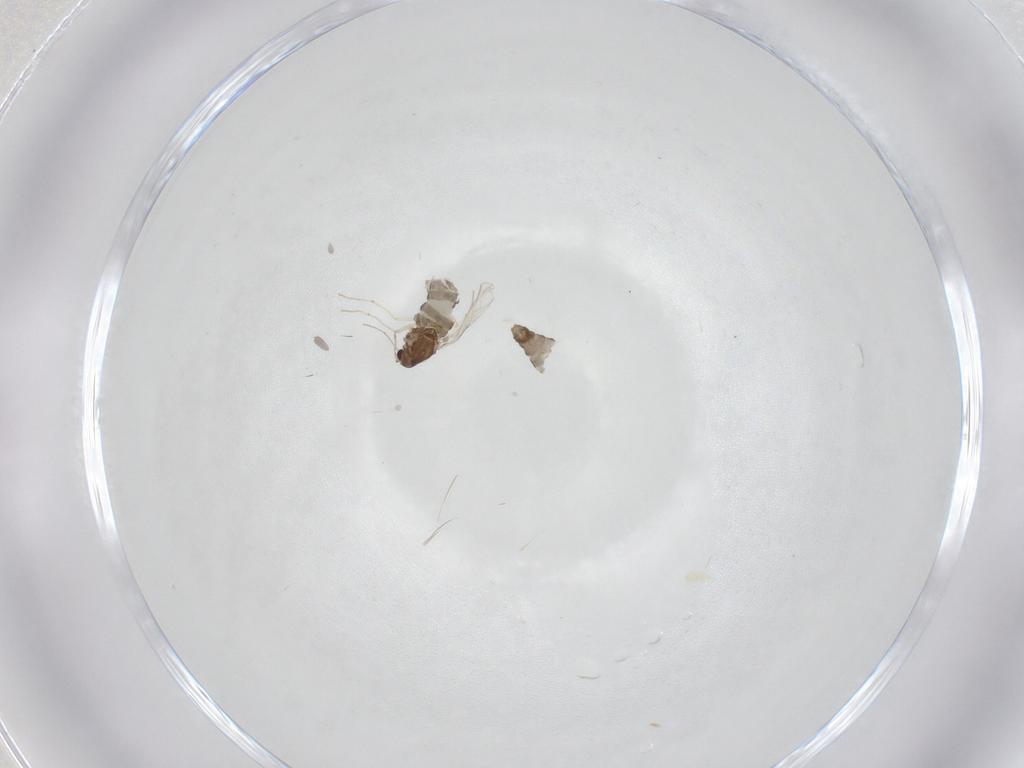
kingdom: Animalia
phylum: Arthropoda
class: Insecta
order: Diptera
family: Chironomidae
